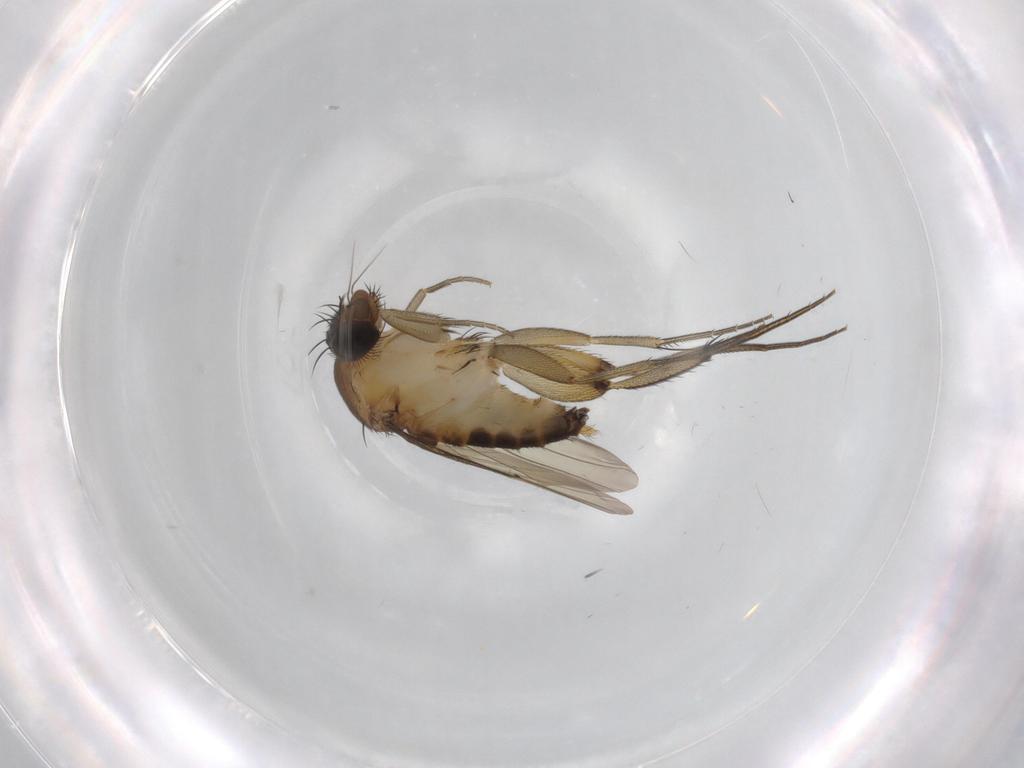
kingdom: Animalia
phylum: Arthropoda
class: Insecta
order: Diptera
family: Phoridae
